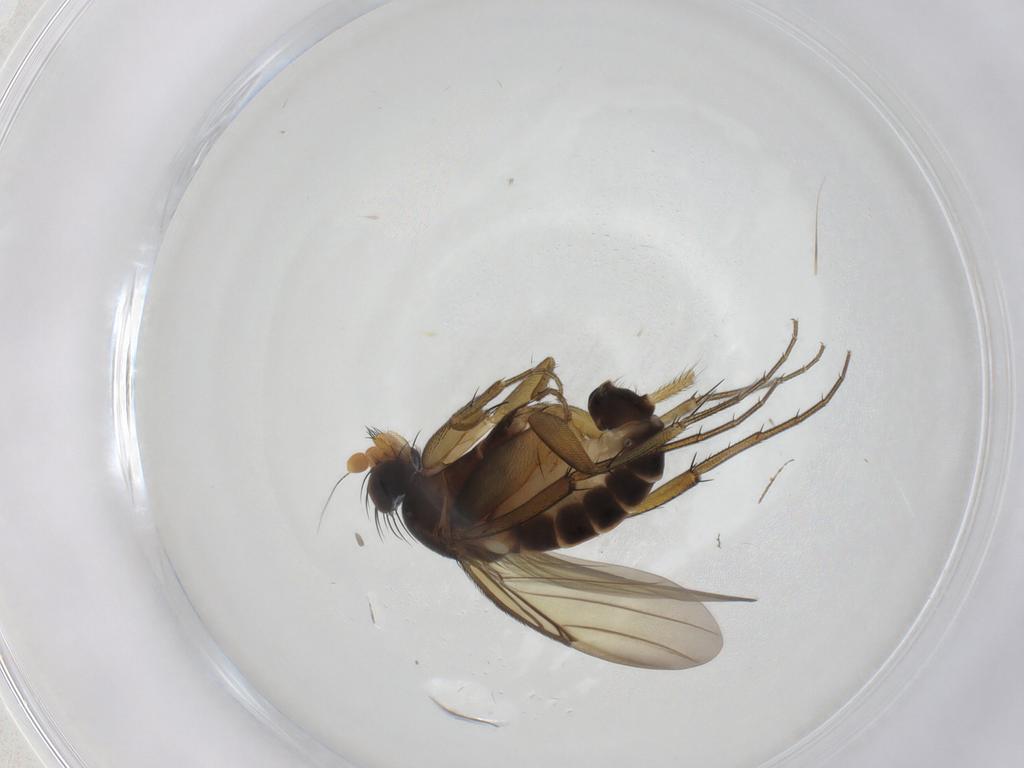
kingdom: Animalia
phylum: Arthropoda
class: Insecta
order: Diptera
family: Phoridae
